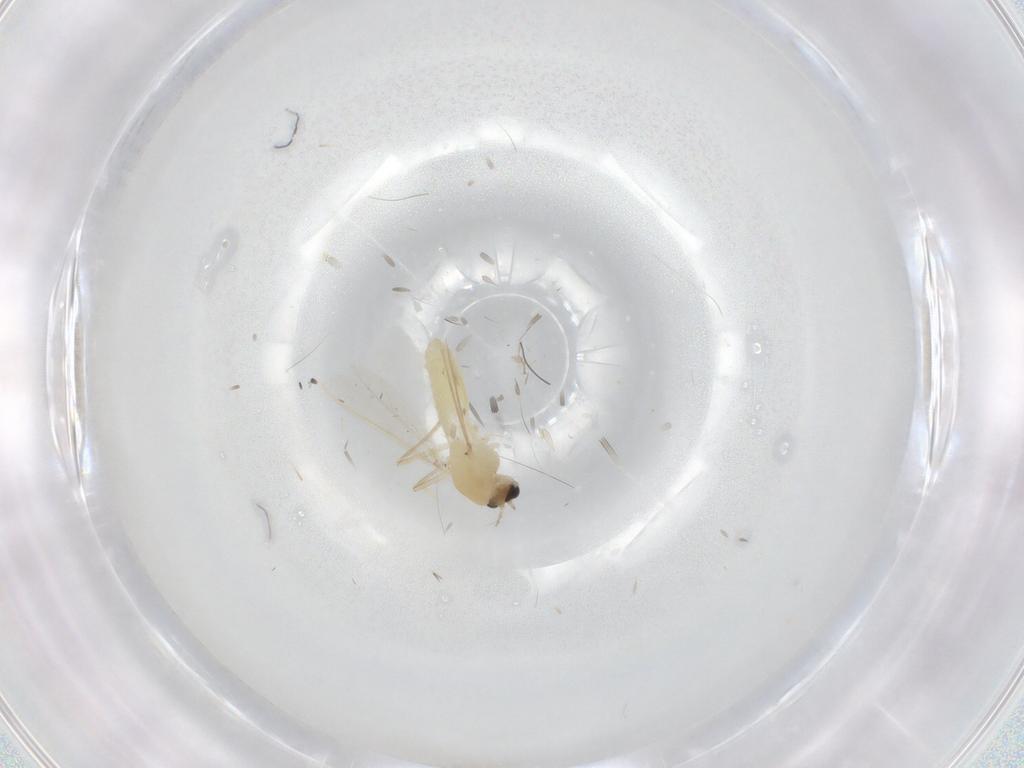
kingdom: Animalia
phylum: Arthropoda
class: Insecta
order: Diptera
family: Chironomidae
